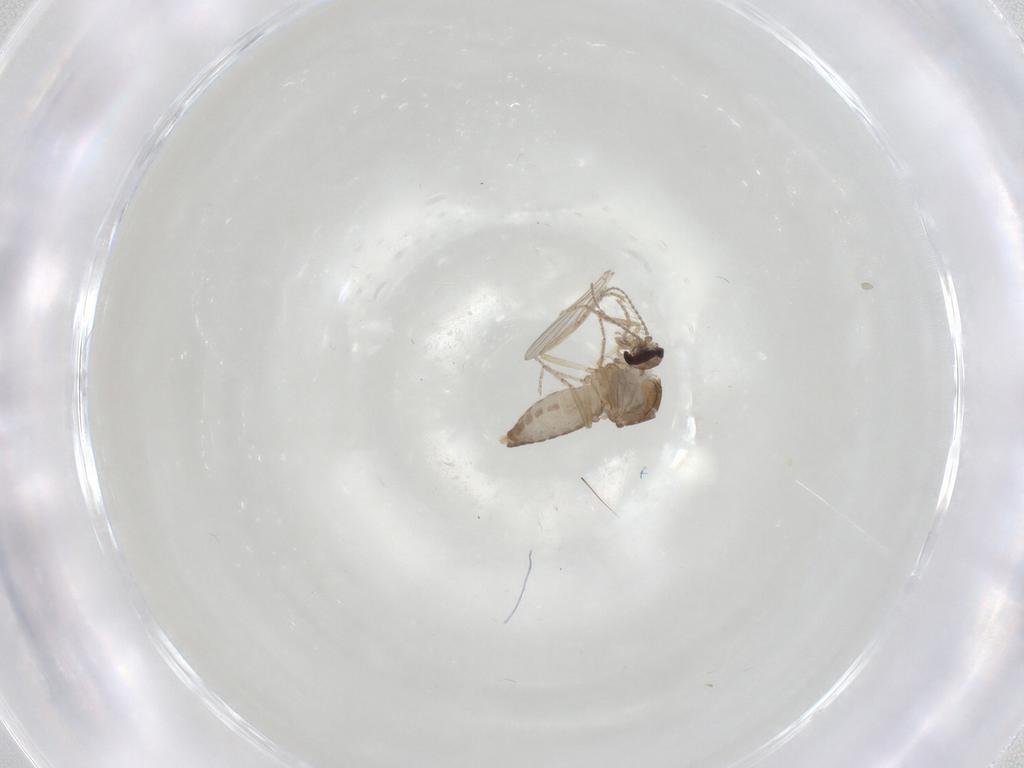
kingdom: Animalia
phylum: Arthropoda
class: Insecta
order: Diptera
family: Ceratopogonidae
